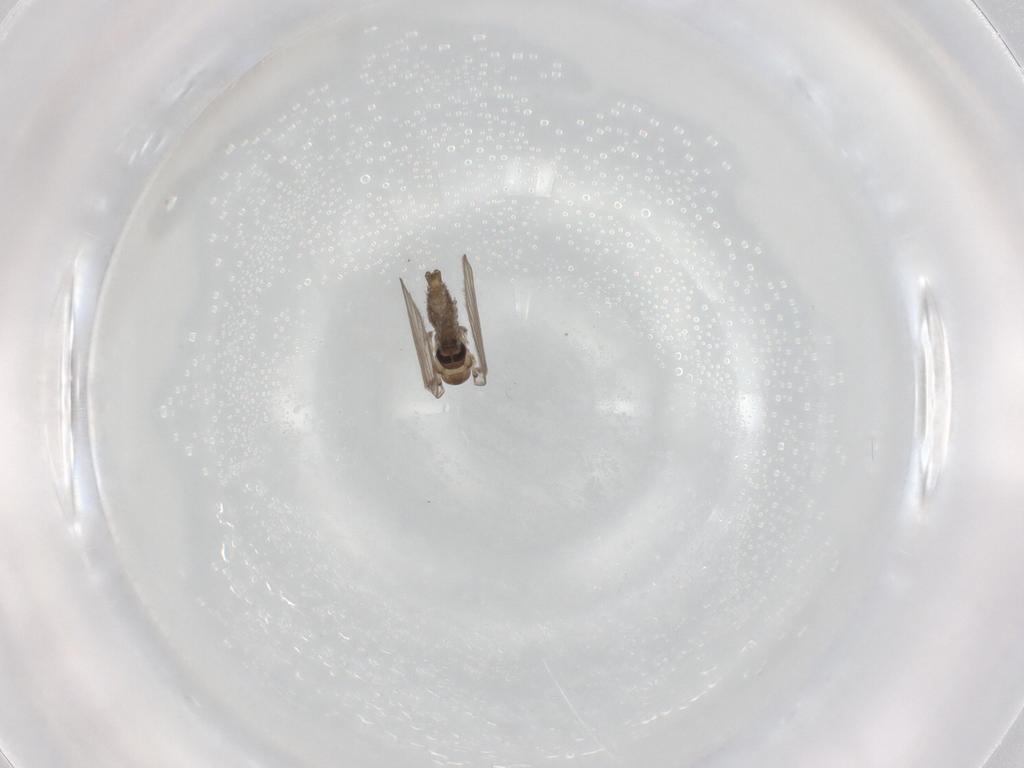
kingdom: Animalia
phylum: Arthropoda
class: Insecta
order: Diptera
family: Psychodidae
